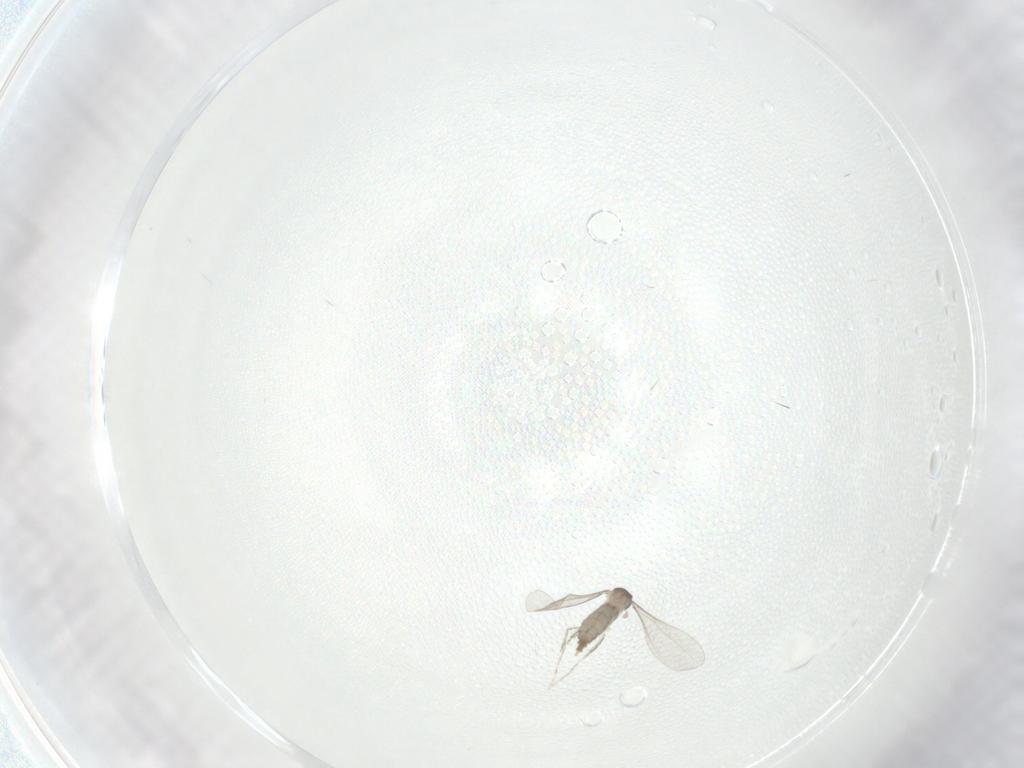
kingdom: Animalia
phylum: Arthropoda
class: Insecta
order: Diptera
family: Cecidomyiidae
